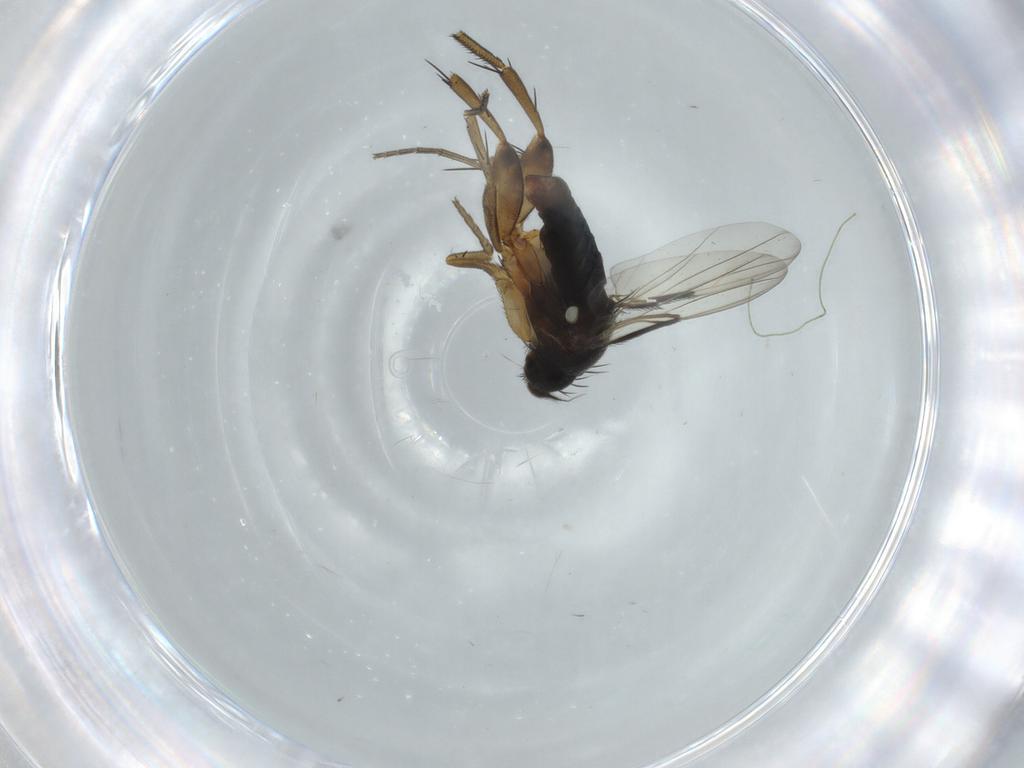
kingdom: Animalia
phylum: Arthropoda
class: Insecta
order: Diptera
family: Phoridae
